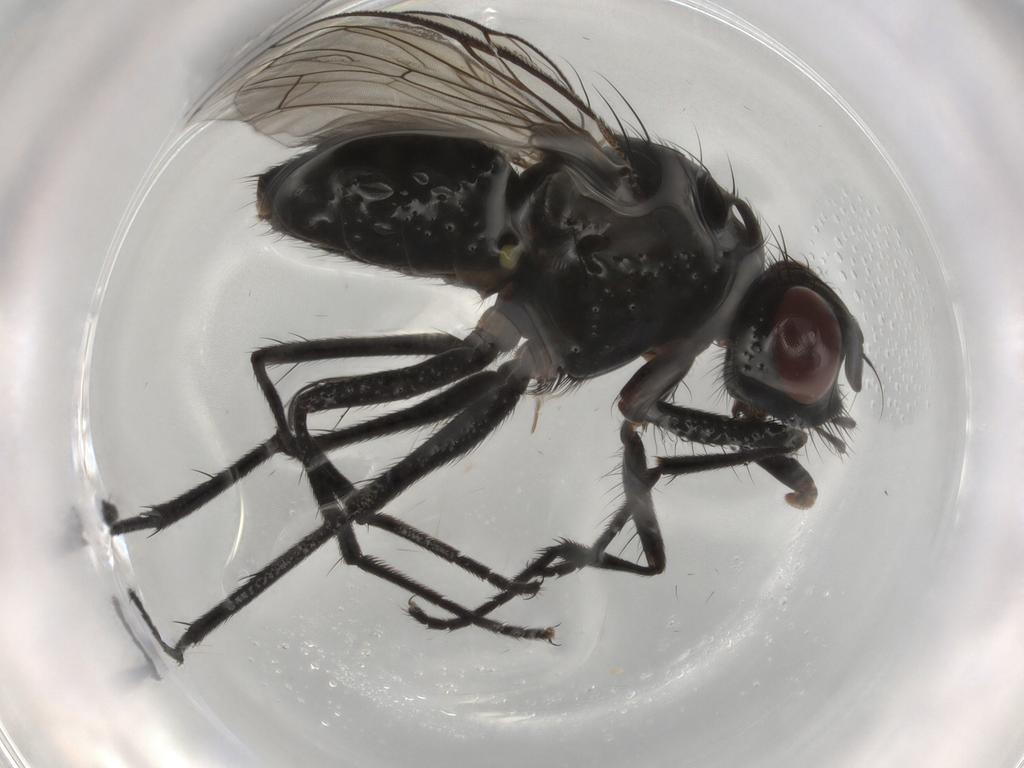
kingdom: Animalia
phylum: Arthropoda
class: Insecta
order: Diptera
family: Muscidae
